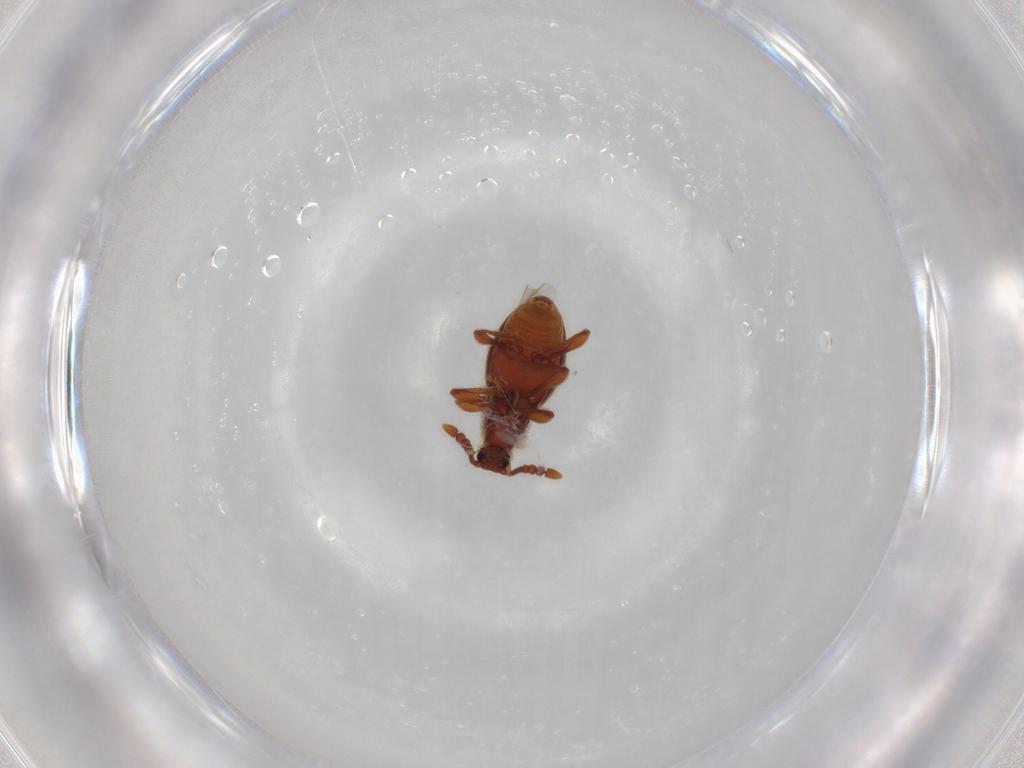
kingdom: Animalia
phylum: Arthropoda
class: Insecta
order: Coleoptera
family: Staphylinidae
